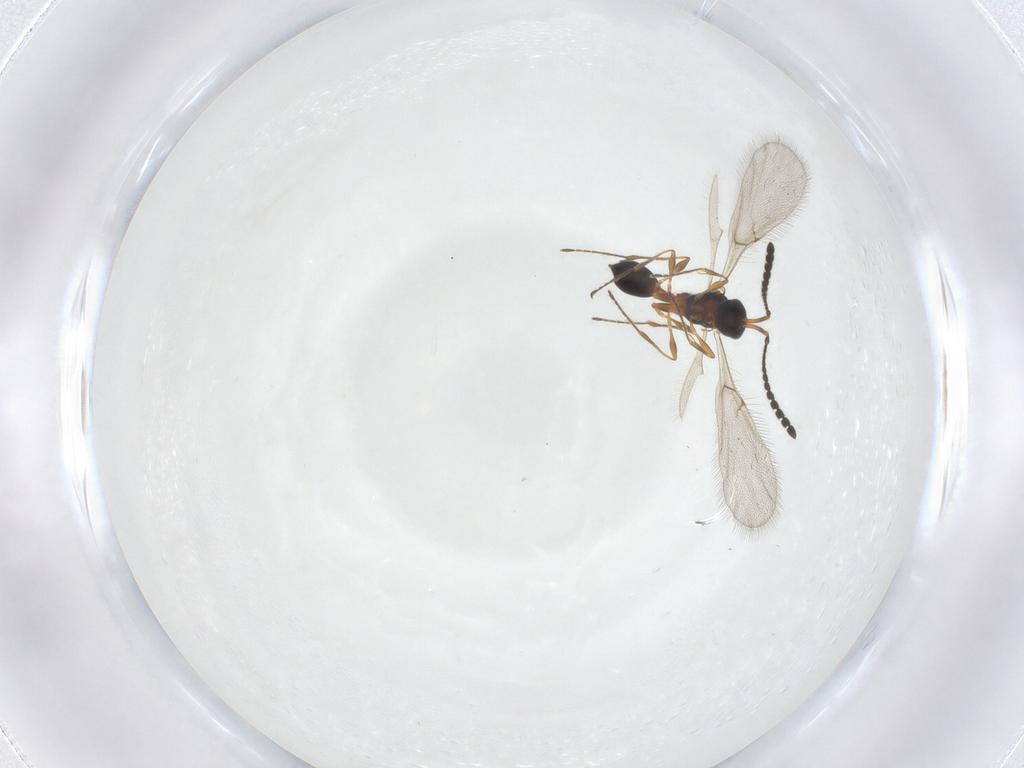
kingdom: Animalia
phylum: Arthropoda
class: Insecta
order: Hymenoptera
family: Diapriidae
